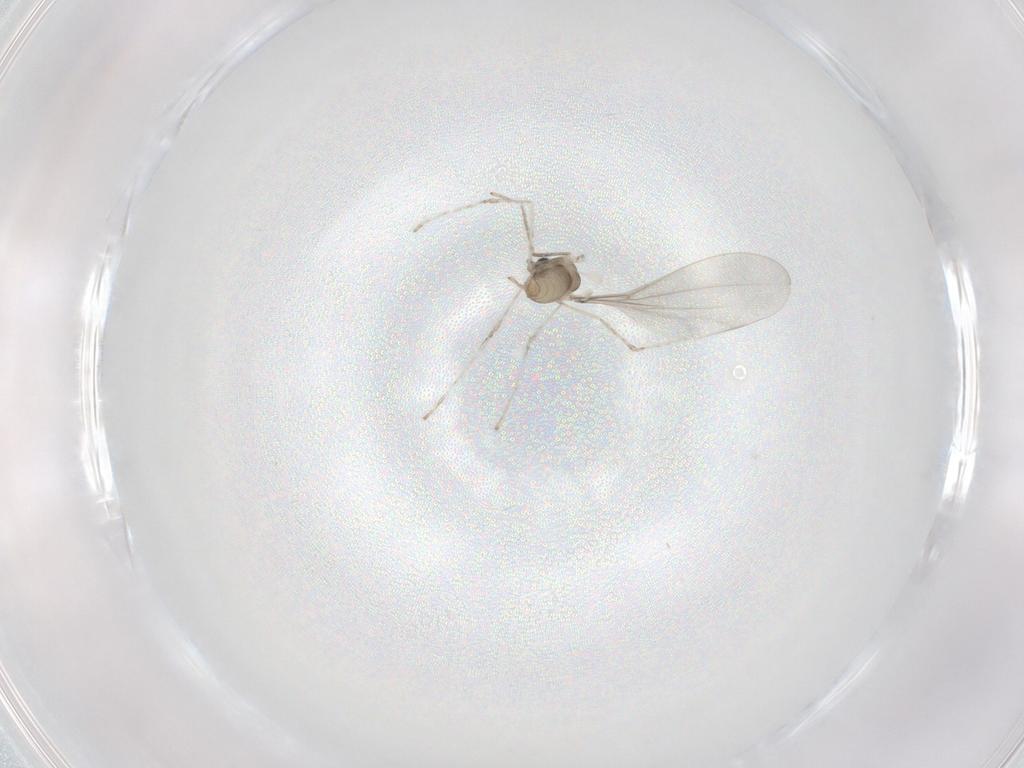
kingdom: Animalia
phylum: Arthropoda
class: Insecta
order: Diptera
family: Cecidomyiidae
